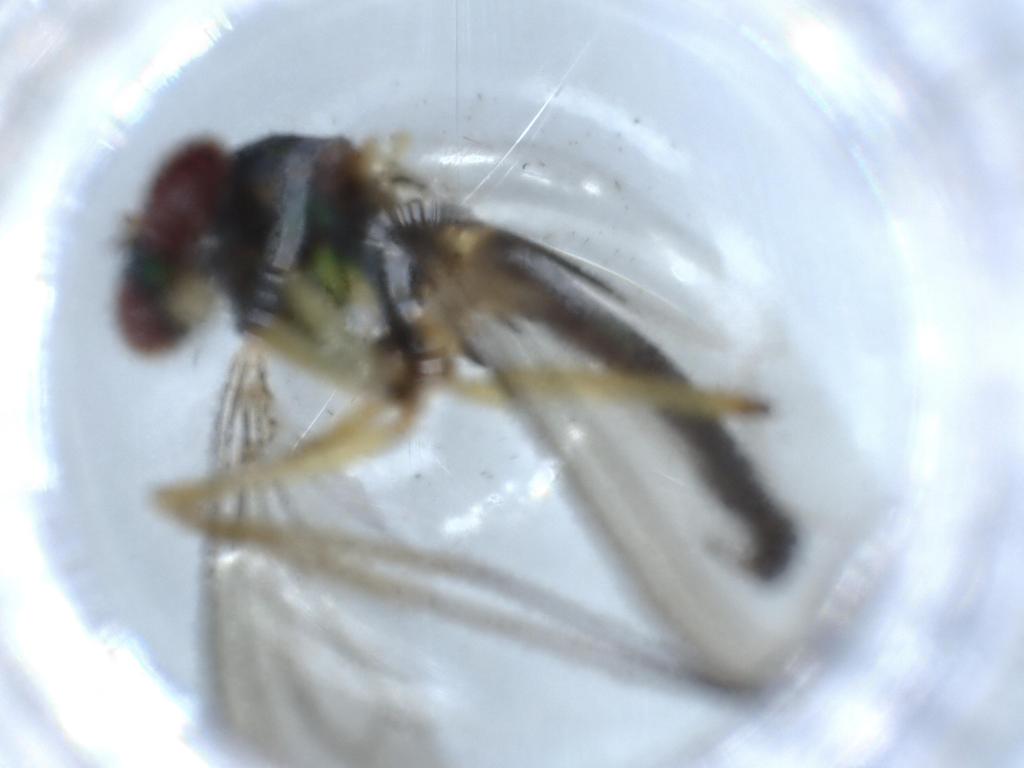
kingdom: Animalia
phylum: Arthropoda
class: Insecta
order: Diptera
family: Dolichopodidae
